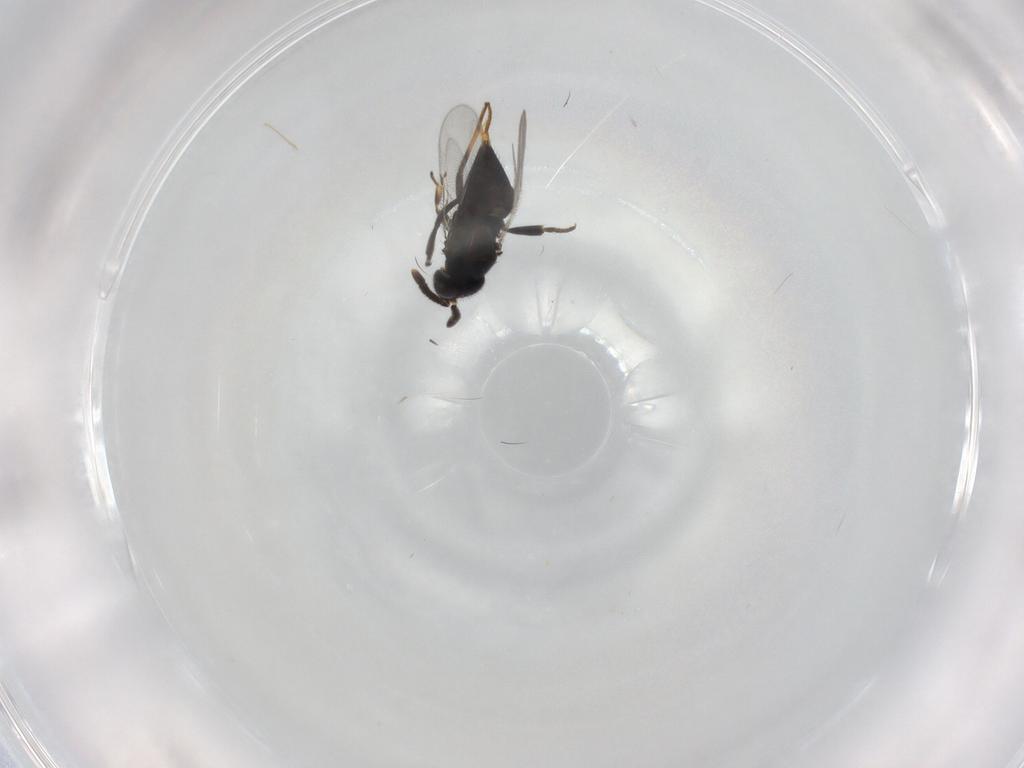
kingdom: Animalia
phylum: Arthropoda
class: Insecta
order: Hymenoptera
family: Encyrtidae
